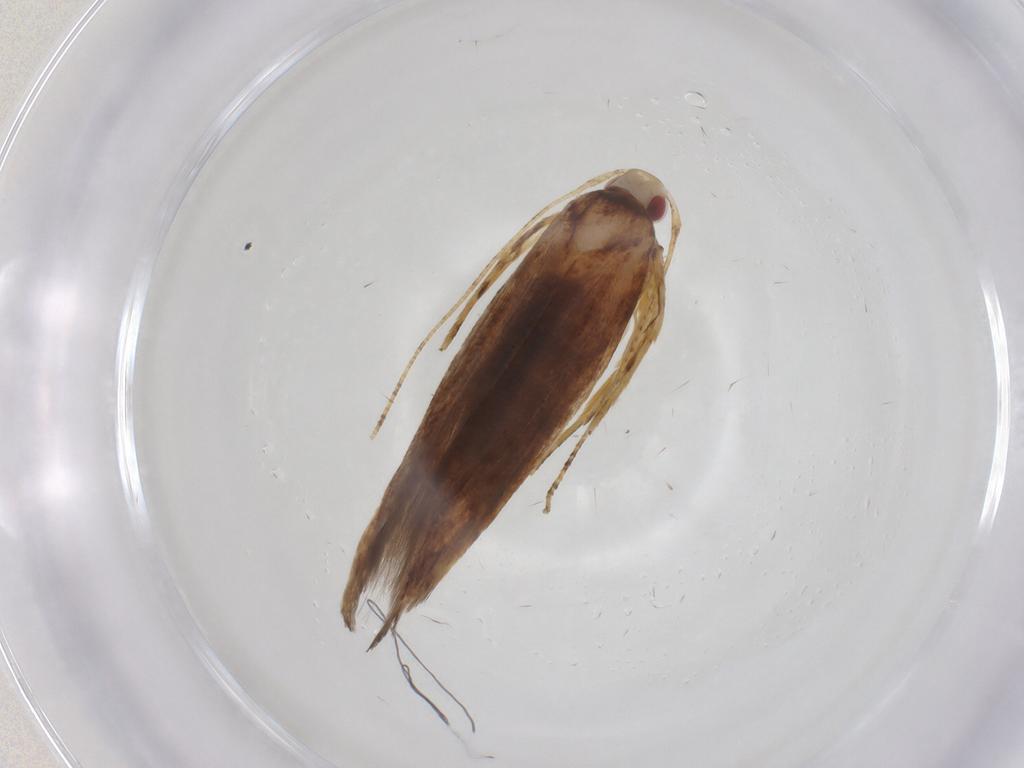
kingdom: Animalia
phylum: Arthropoda
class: Insecta
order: Lepidoptera
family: Cosmopterigidae
